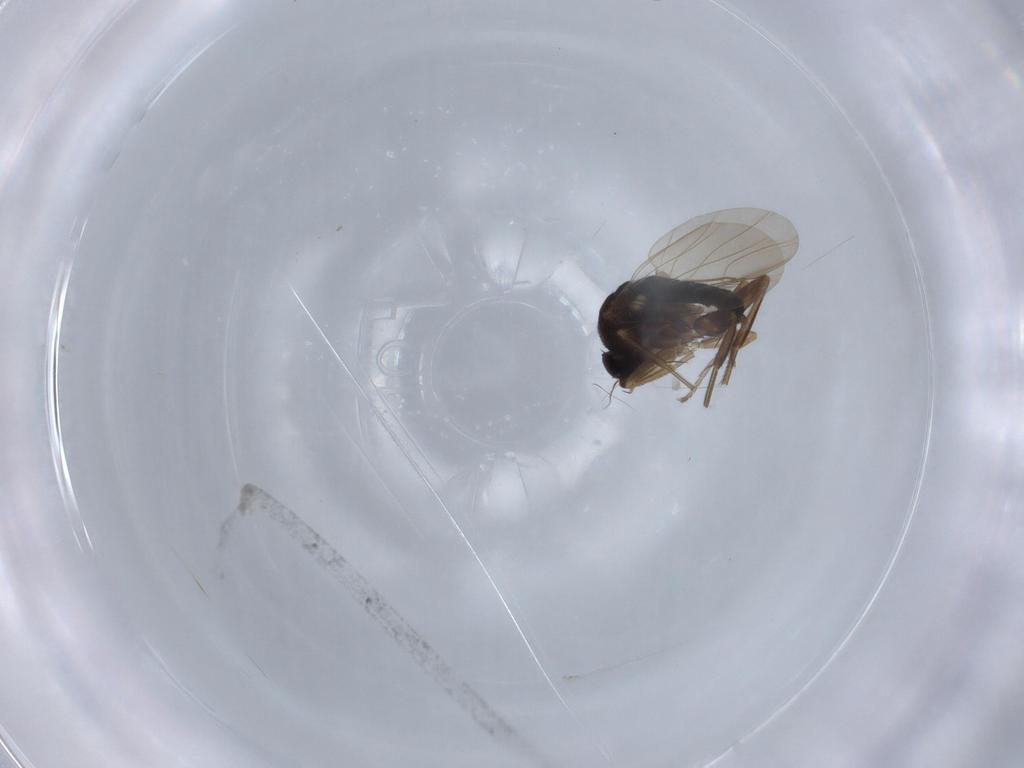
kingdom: Animalia
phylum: Arthropoda
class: Insecta
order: Diptera
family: Phoridae
